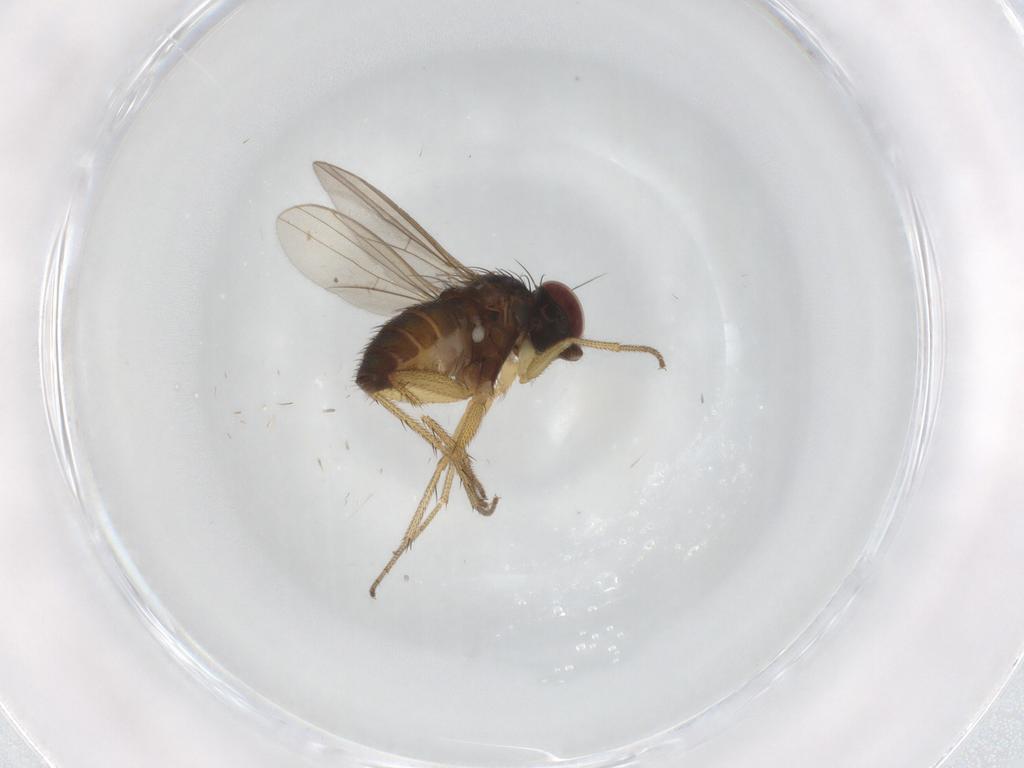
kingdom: Animalia
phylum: Arthropoda
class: Insecta
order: Diptera
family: Dolichopodidae
